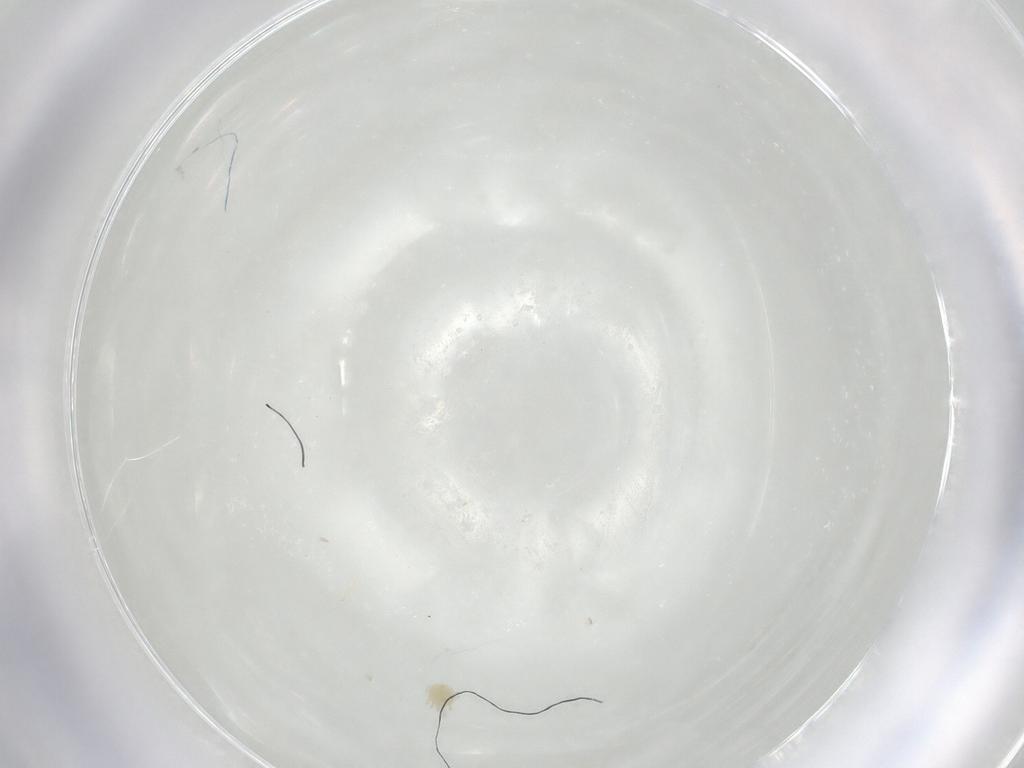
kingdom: Animalia
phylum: Arthropoda
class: Arachnida
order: Trombidiformes
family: Tetranychidae
